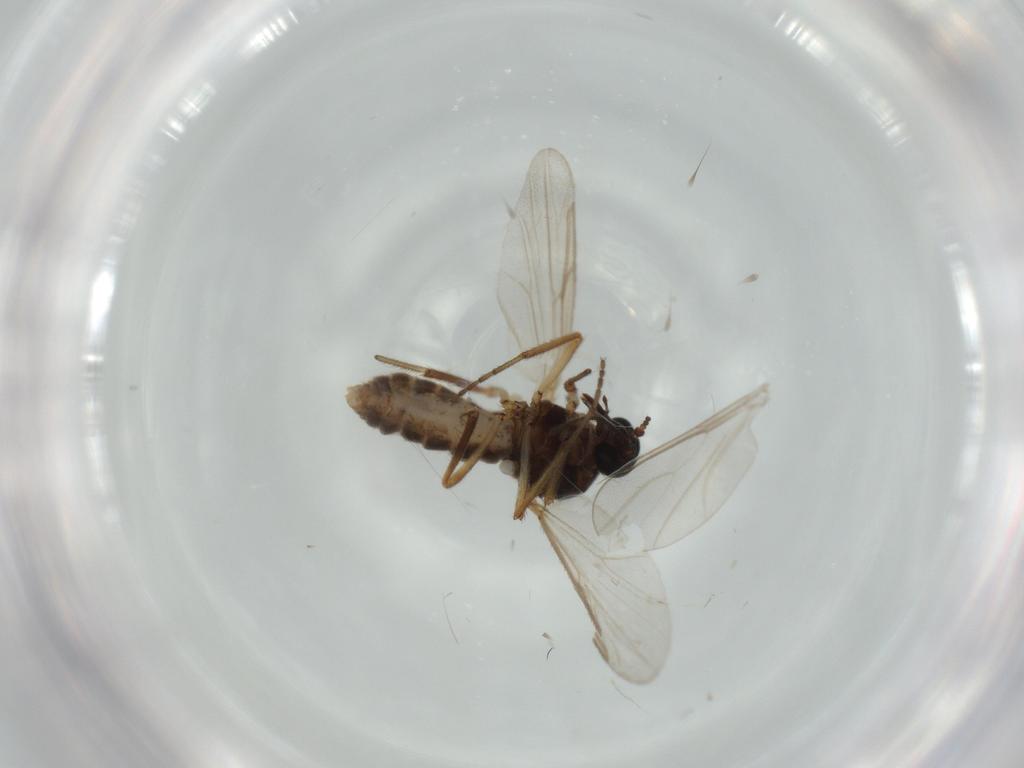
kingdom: Animalia
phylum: Arthropoda
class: Insecta
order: Diptera
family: Ceratopogonidae
